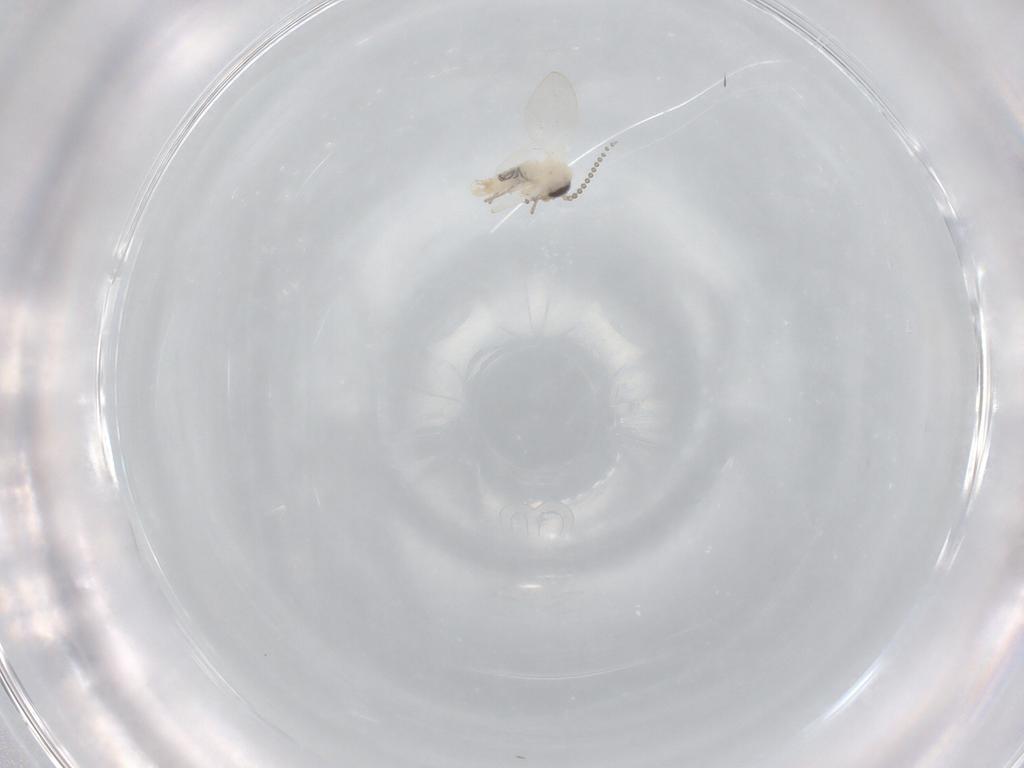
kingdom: Animalia
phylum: Arthropoda
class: Insecta
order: Diptera
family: Psychodidae
